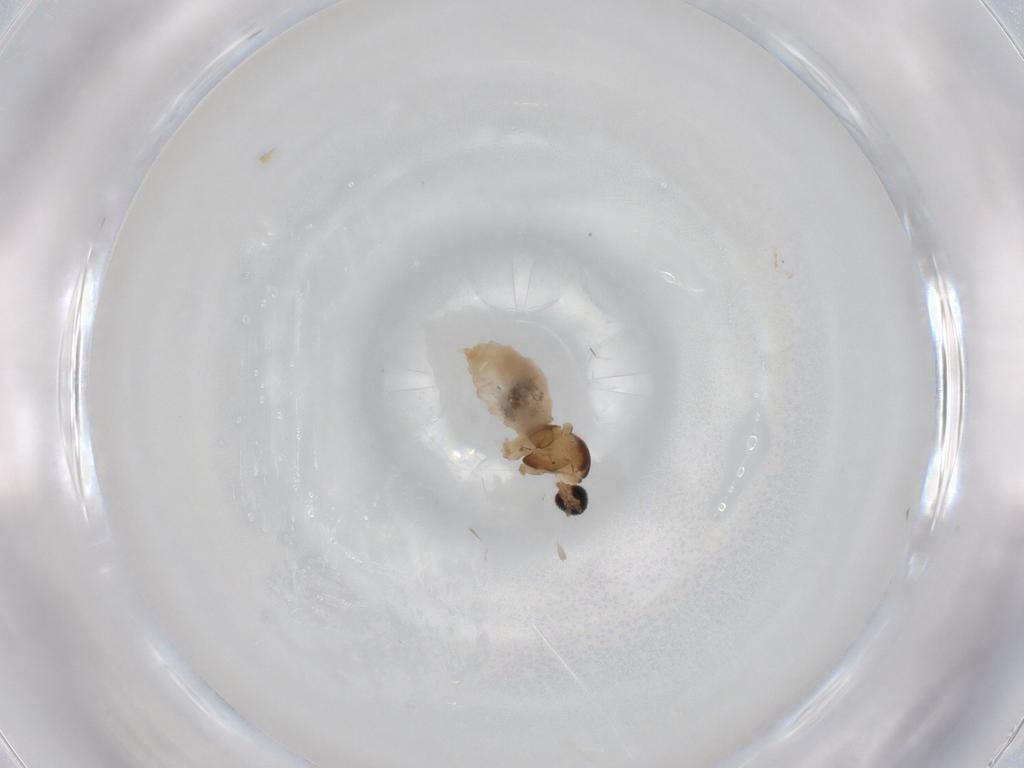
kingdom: Animalia
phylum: Arthropoda
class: Insecta
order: Diptera
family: Cecidomyiidae
